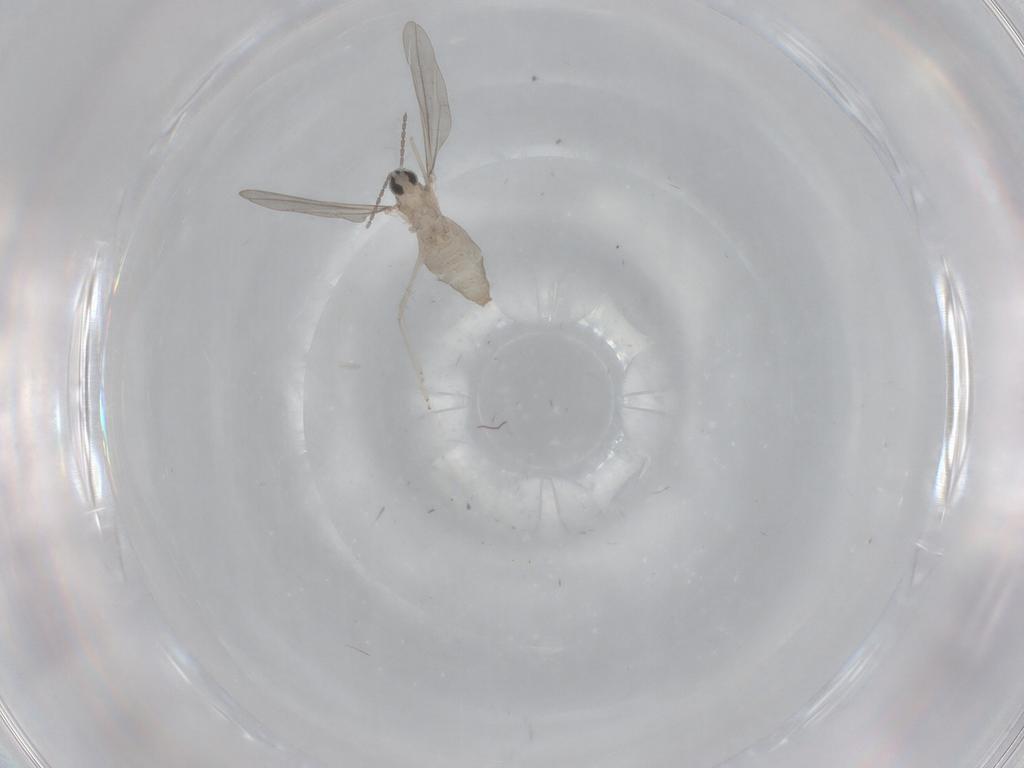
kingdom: Animalia
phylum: Arthropoda
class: Insecta
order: Diptera
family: Cecidomyiidae
